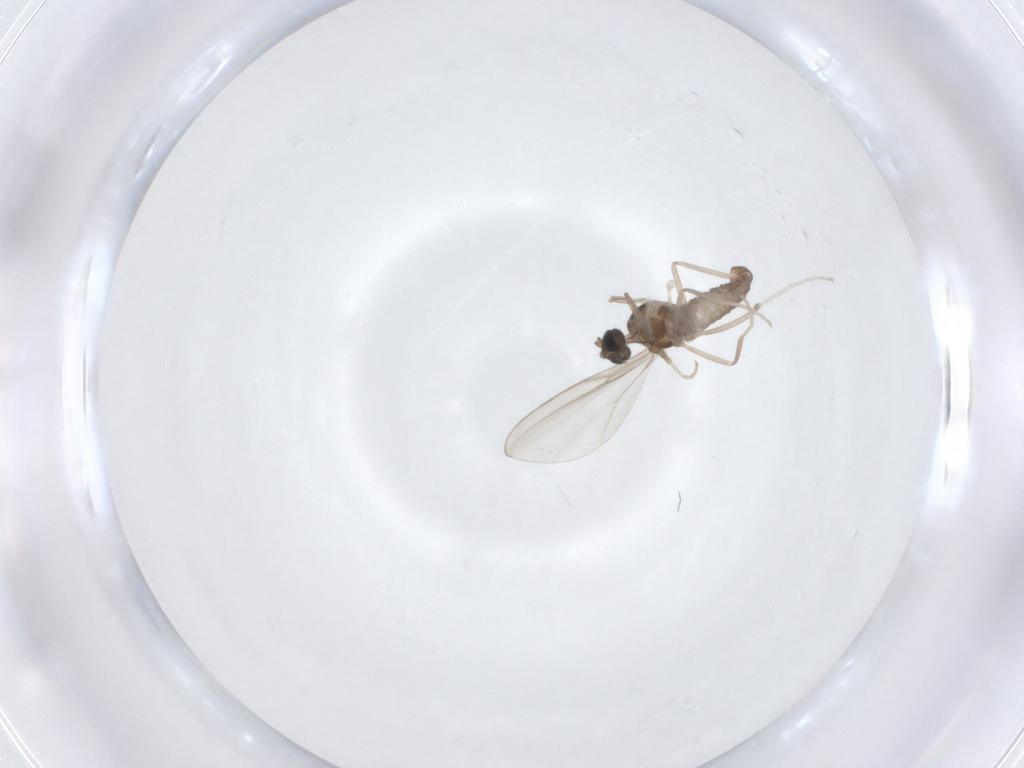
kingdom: Animalia
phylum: Arthropoda
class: Insecta
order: Diptera
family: Cecidomyiidae
